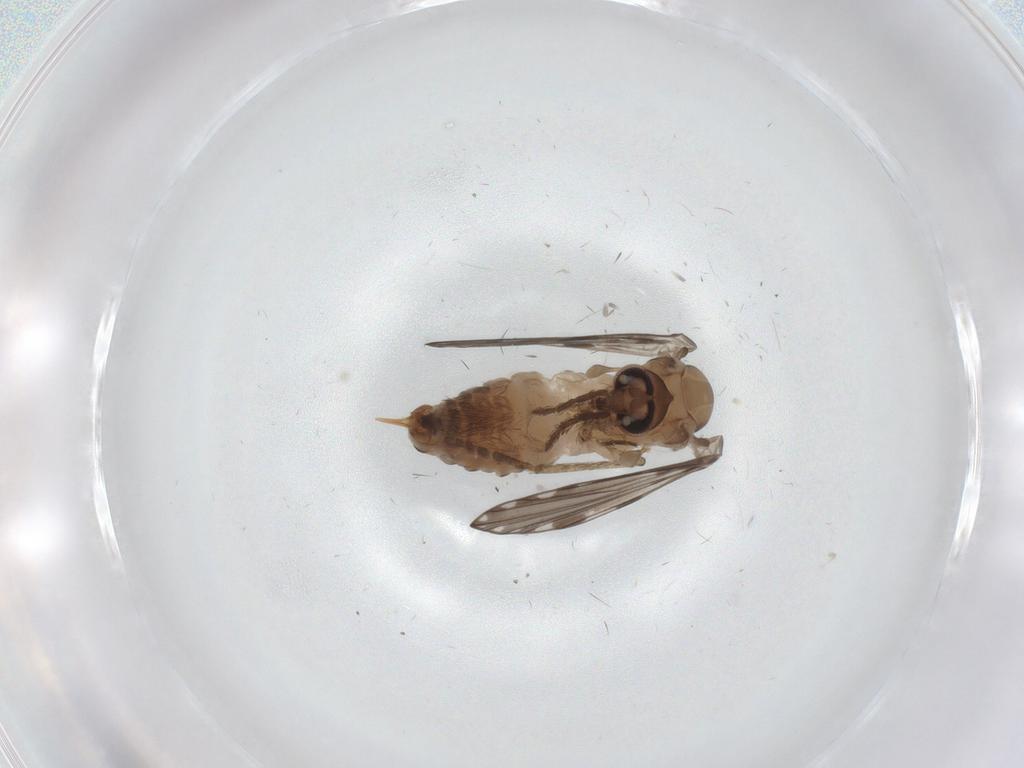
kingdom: Animalia
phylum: Arthropoda
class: Insecta
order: Diptera
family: Psychodidae
